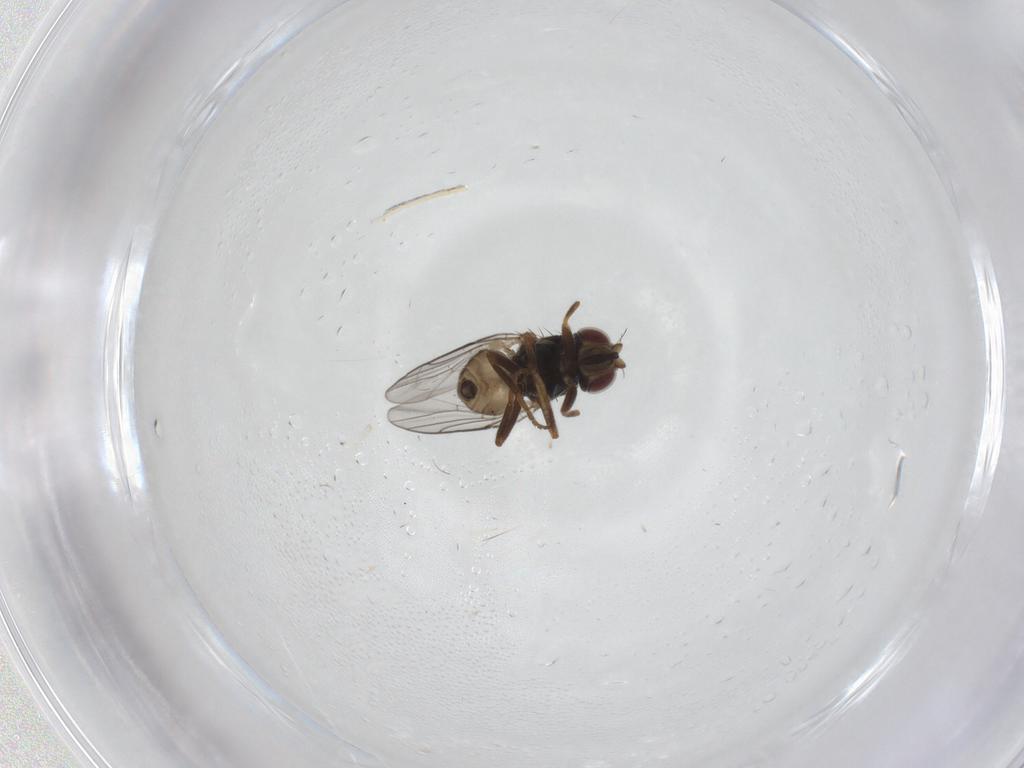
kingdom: Animalia
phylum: Arthropoda
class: Insecta
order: Diptera
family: Chloropidae
